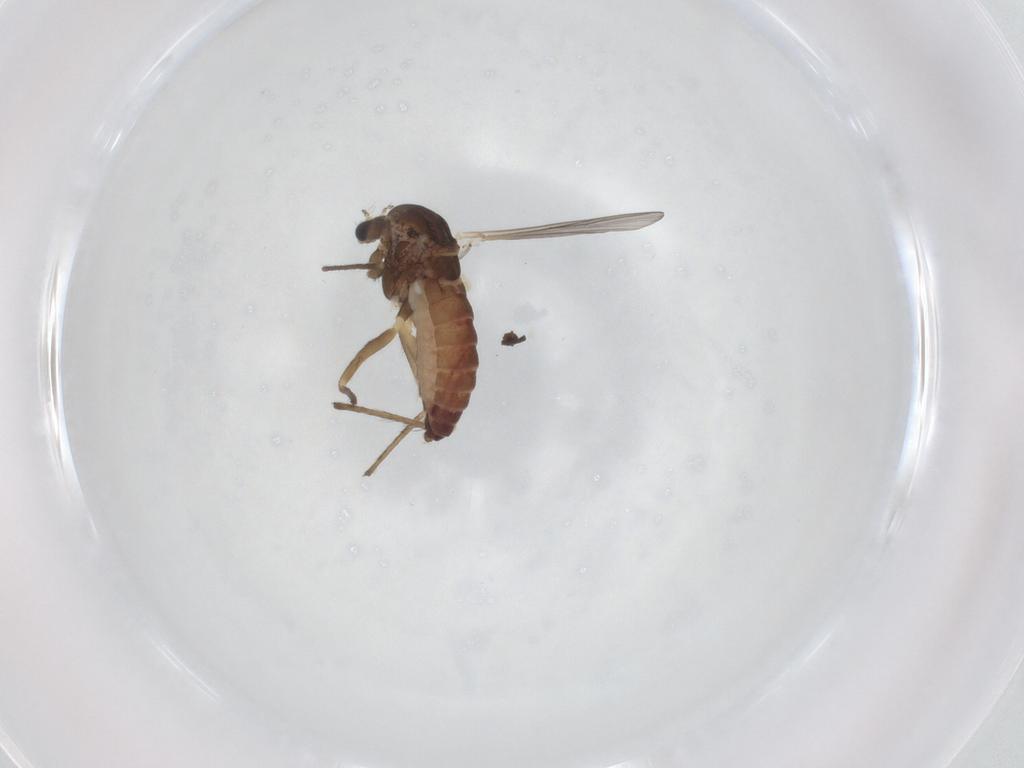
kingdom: Animalia
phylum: Arthropoda
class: Insecta
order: Diptera
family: Chironomidae
